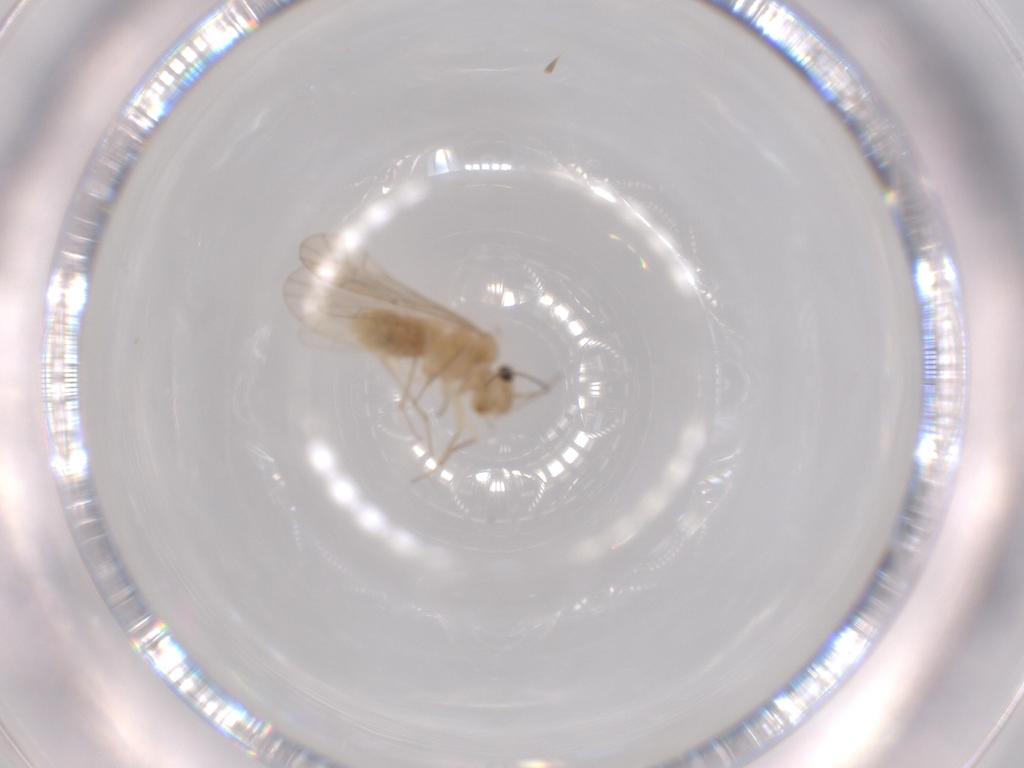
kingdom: Animalia
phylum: Arthropoda
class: Insecta
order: Psocodea
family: Lachesillidae
